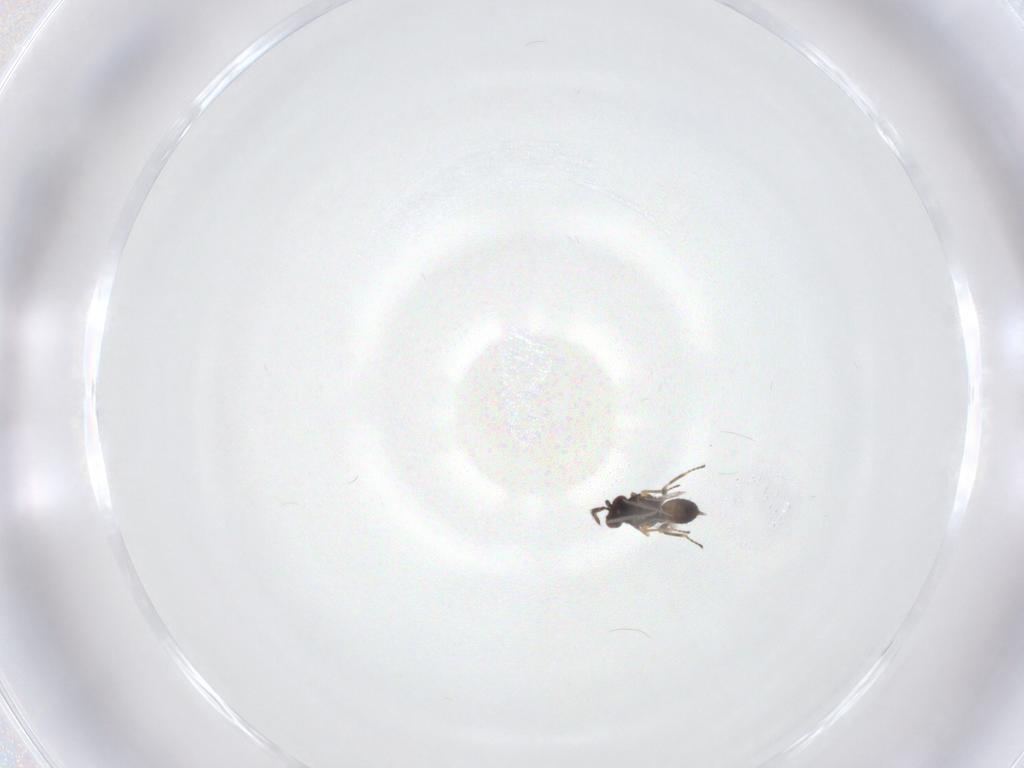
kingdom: Animalia
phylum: Arthropoda
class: Insecta
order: Hymenoptera
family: Eulophidae
